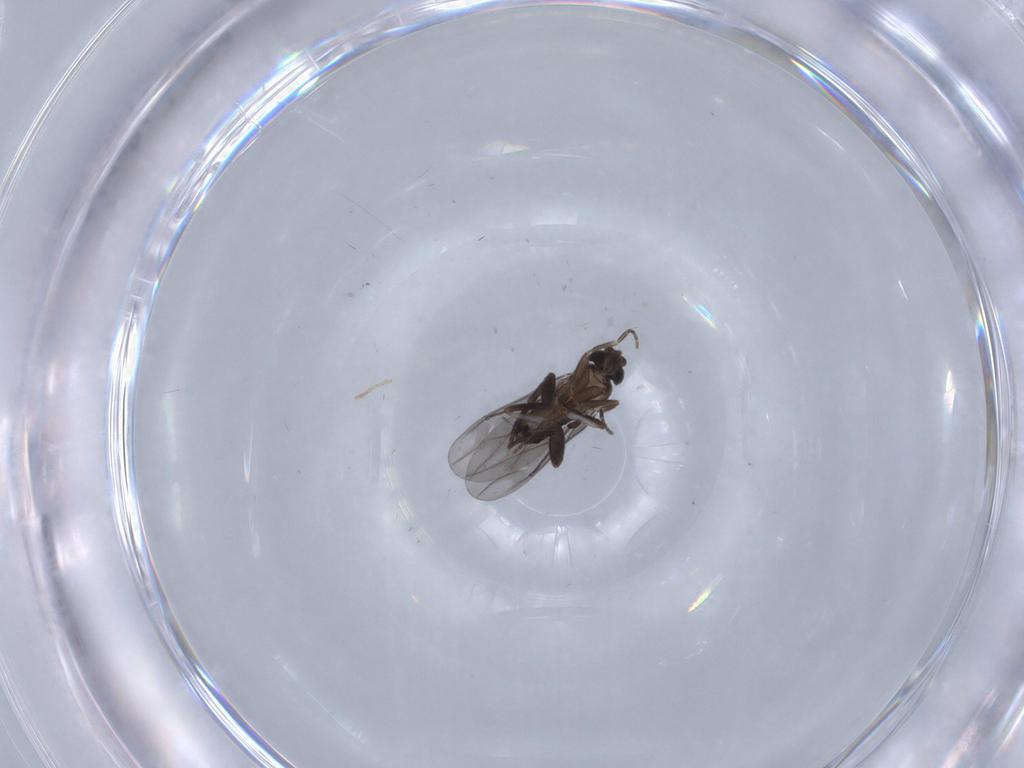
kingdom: Animalia
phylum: Arthropoda
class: Insecta
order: Diptera
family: Phoridae
